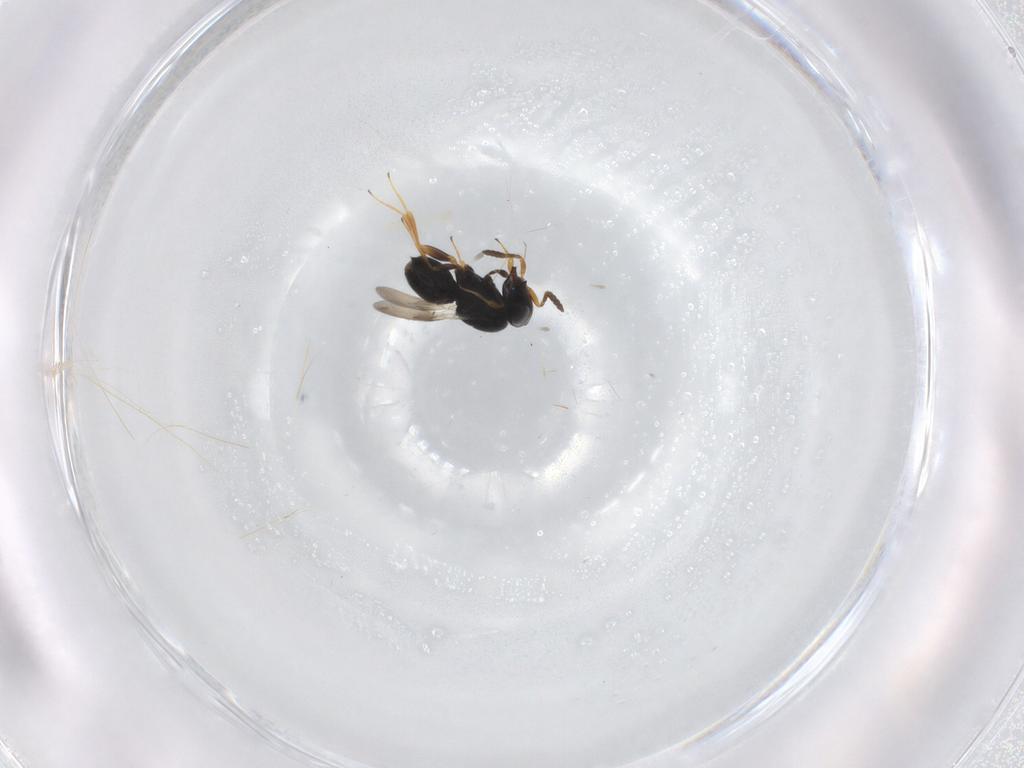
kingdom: Animalia
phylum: Arthropoda
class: Insecta
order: Hymenoptera
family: Scelionidae
